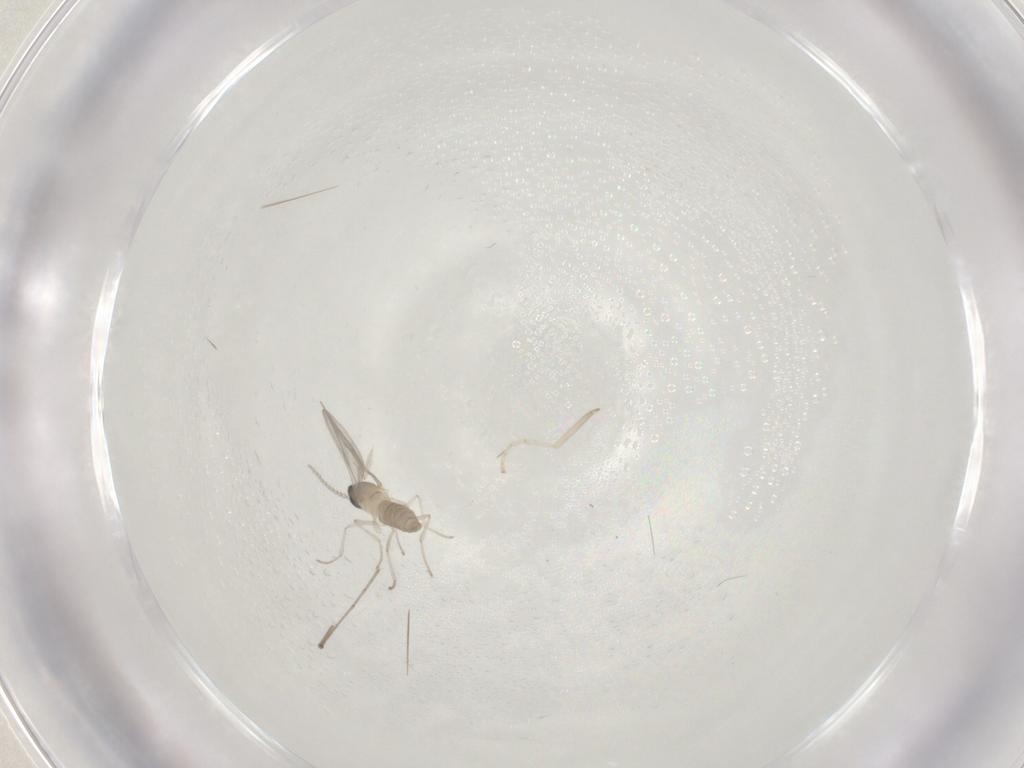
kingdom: Animalia
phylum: Arthropoda
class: Insecta
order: Diptera
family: Cecidomyiidae
